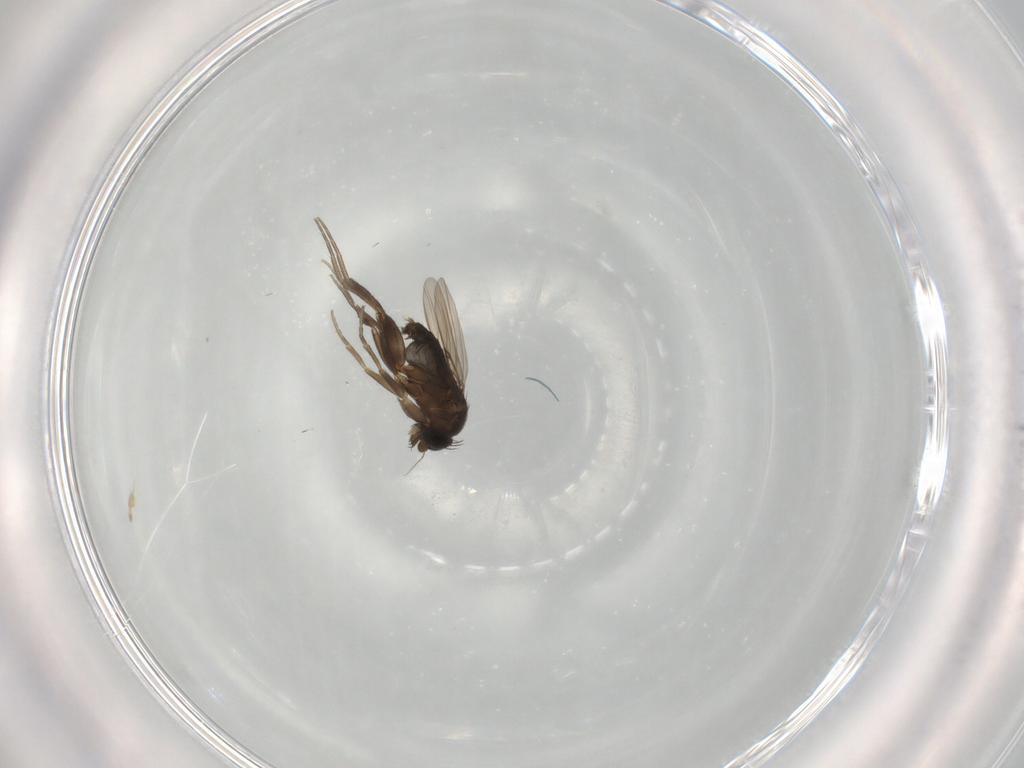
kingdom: Animalia
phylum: Arthropoda
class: Insecta
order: Diptera
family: Phoridae
